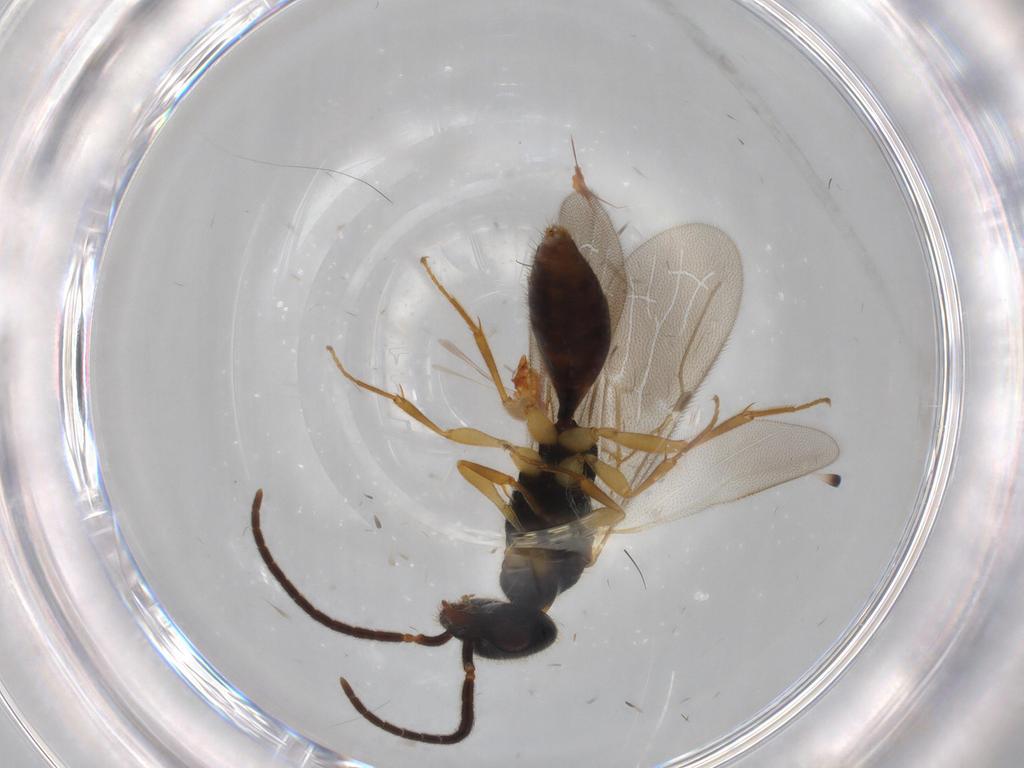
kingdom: Animalia
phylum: Arthropoda
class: Insecta
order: Hymenoptera
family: Bethylidae
